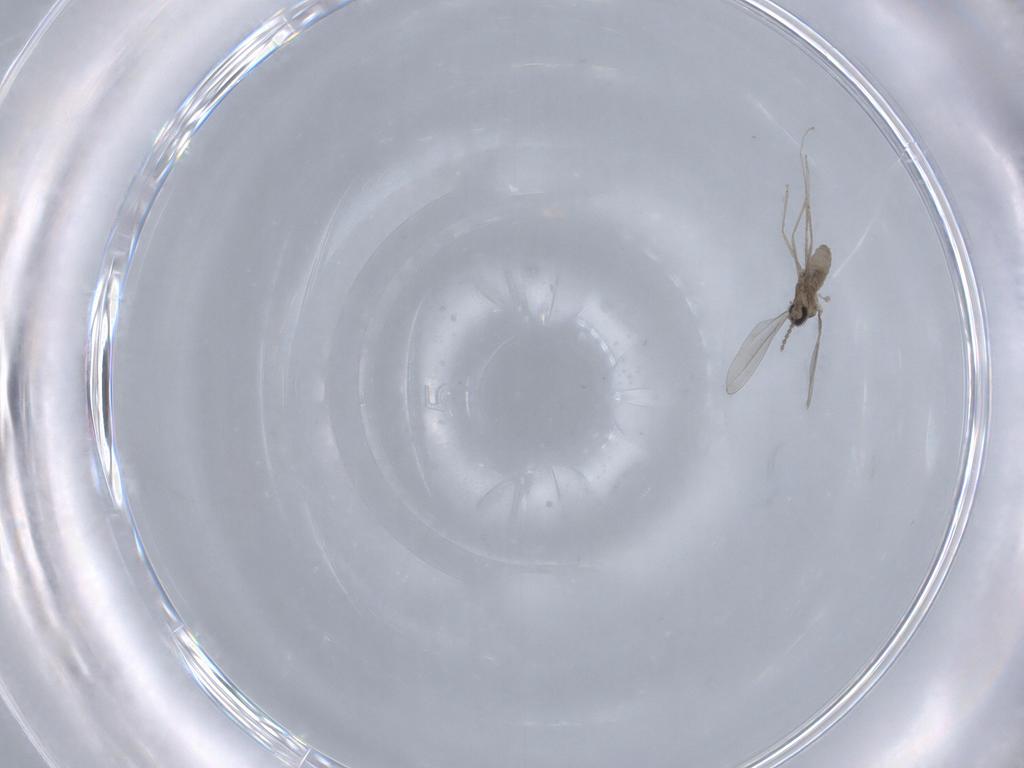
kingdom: Animalia
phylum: Arthropoda
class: Insecta
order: Diptera
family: Cecidomyiidae
